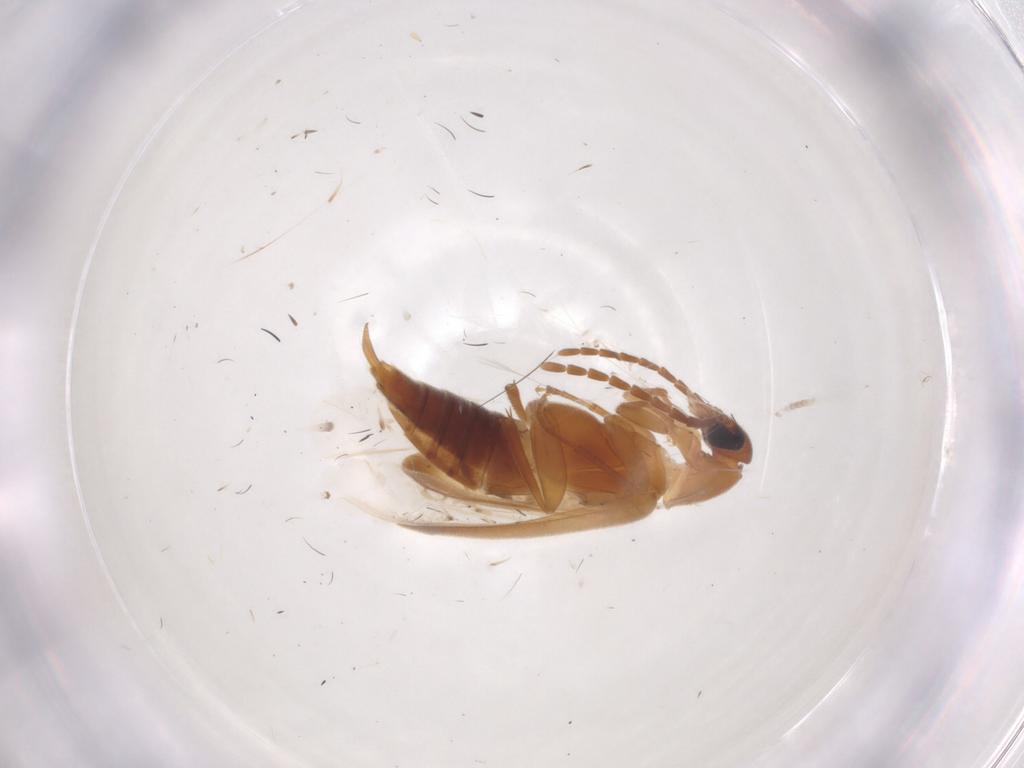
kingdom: Animalia
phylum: Arthropoda
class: Insecta
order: Coleoptera
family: Scraptiidae
